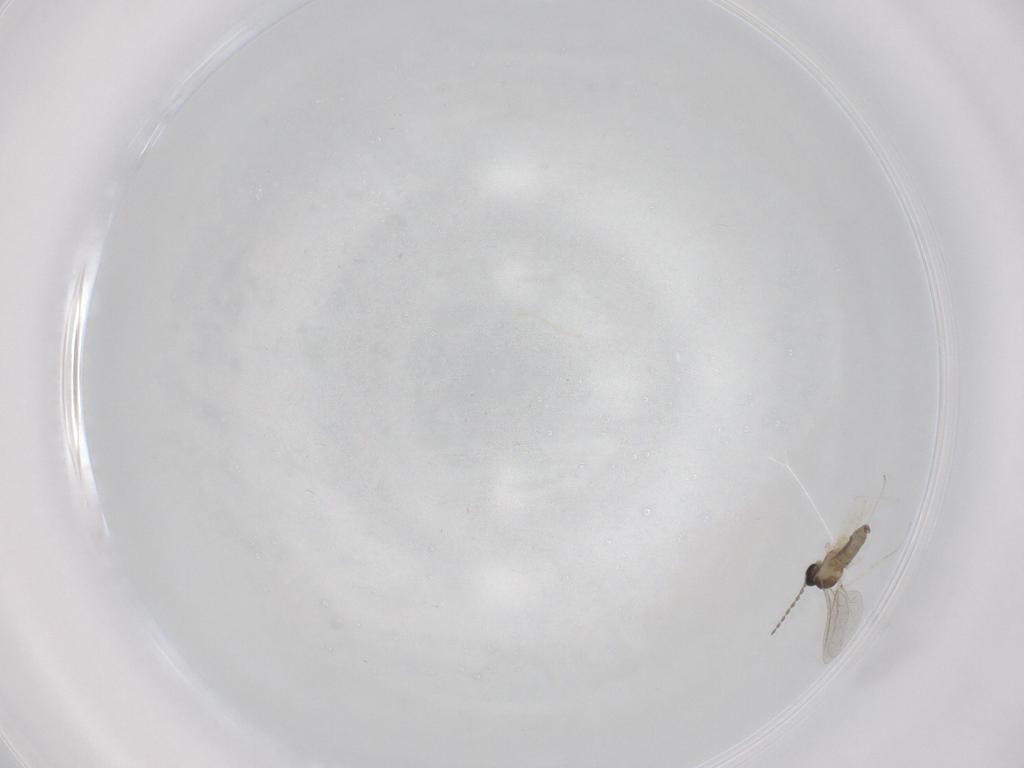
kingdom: Animalia
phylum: Arthropoda
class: Insecta
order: Diptera
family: Cecidomyiidae
